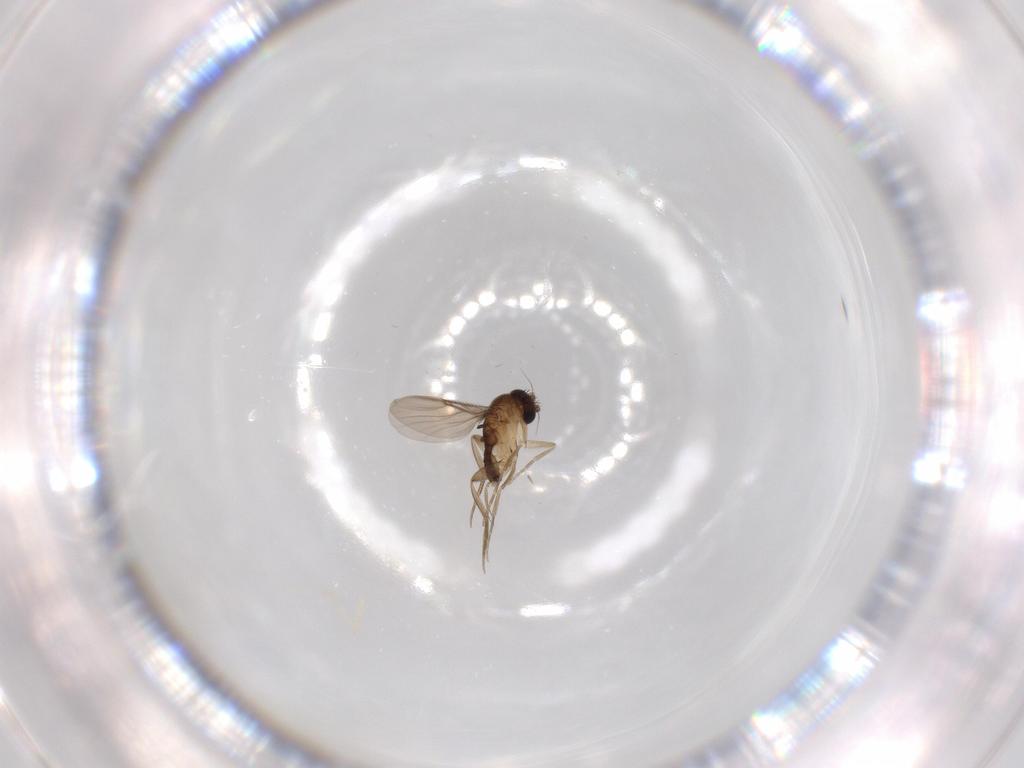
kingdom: Animalia
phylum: Arthropoda
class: Insecta
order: Diptera
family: Phoridae
